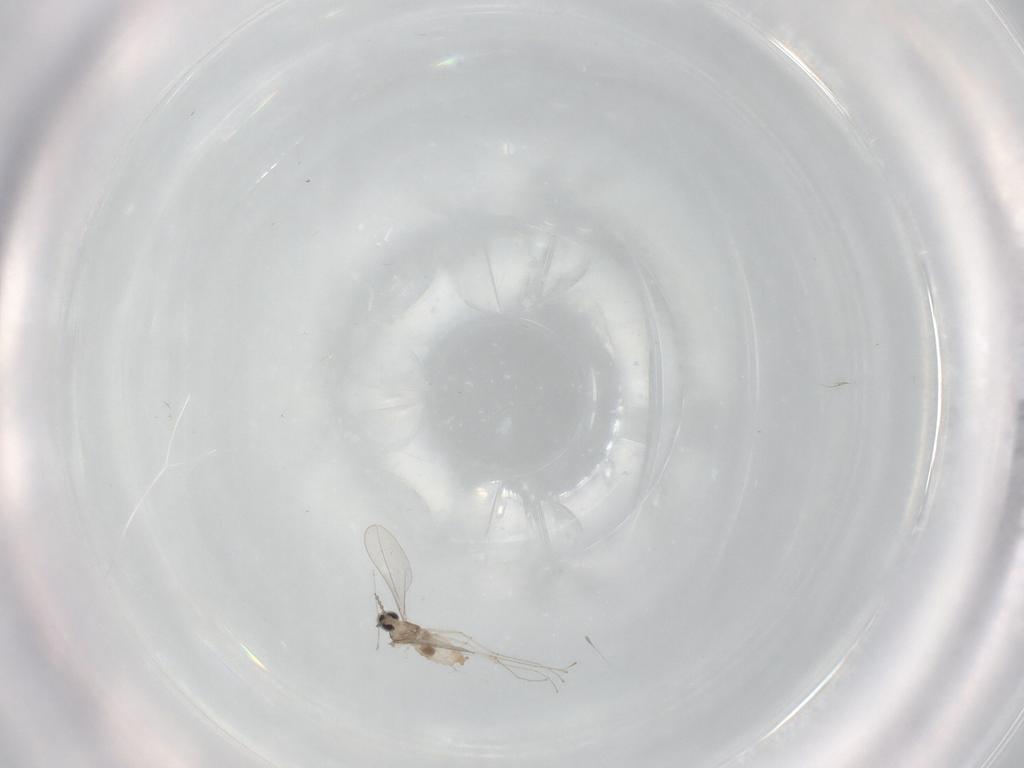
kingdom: Animalia
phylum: Arthropoda
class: Insecta
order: Diptera
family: Cecidomyiidae
